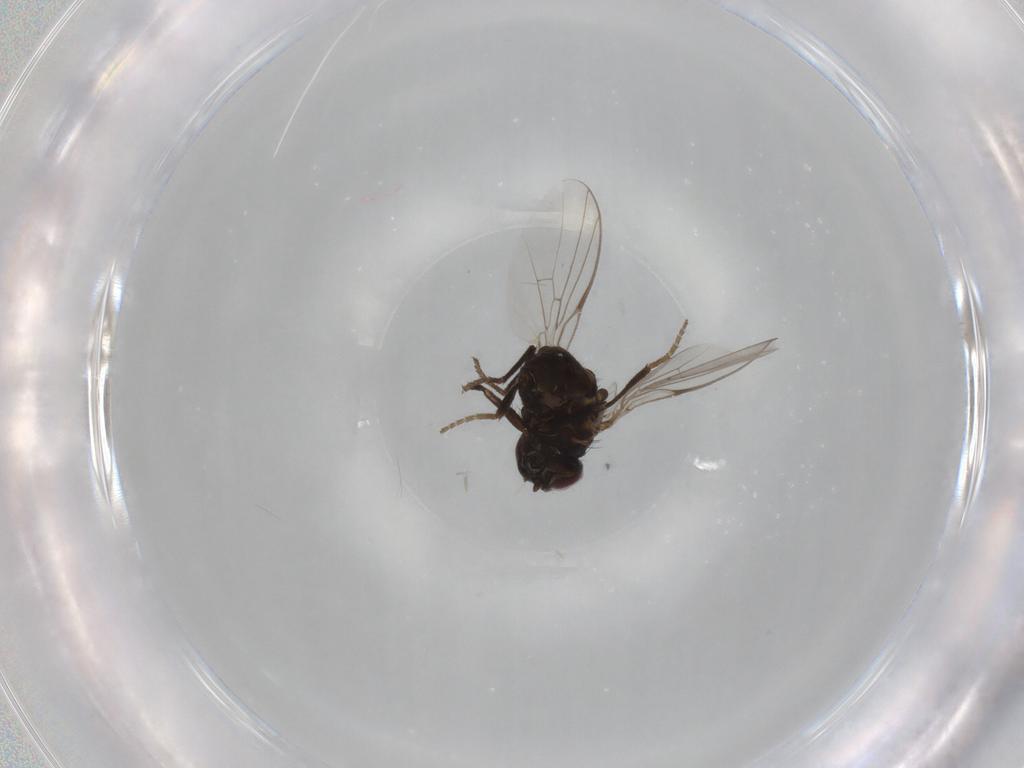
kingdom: Animalia
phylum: Arthropoda
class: Insecta
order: Diptera
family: Agromyzidae
